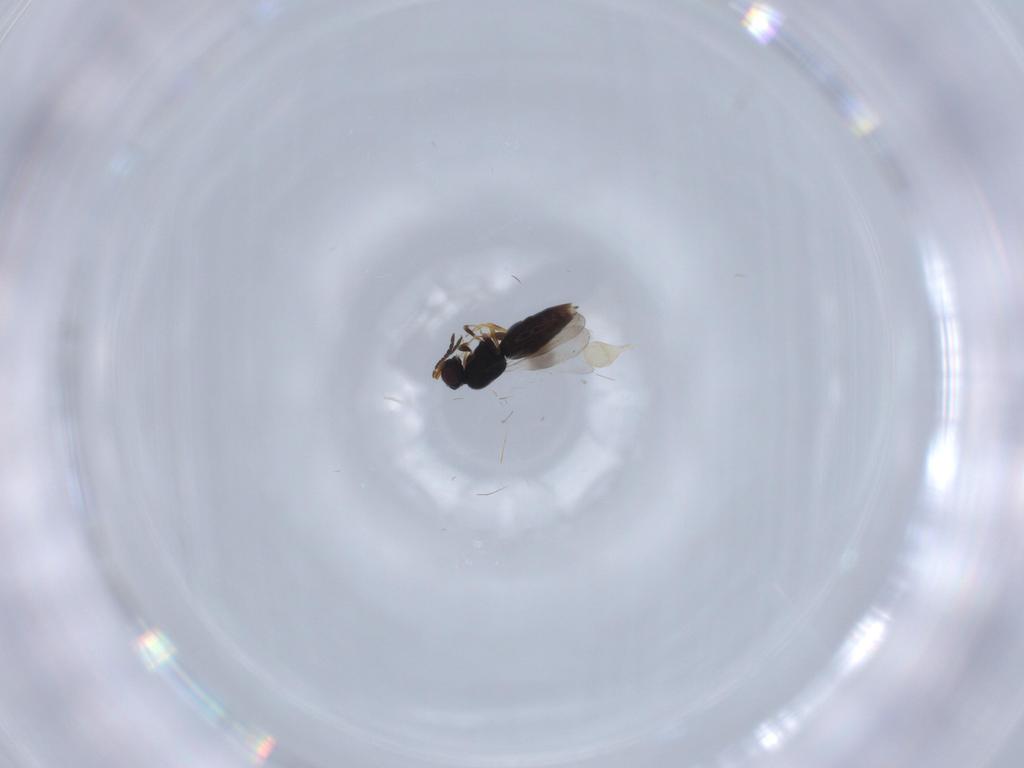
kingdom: Animalia
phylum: Arthropoda
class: Insecta
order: Hymenoptera
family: Ceraphronidae
